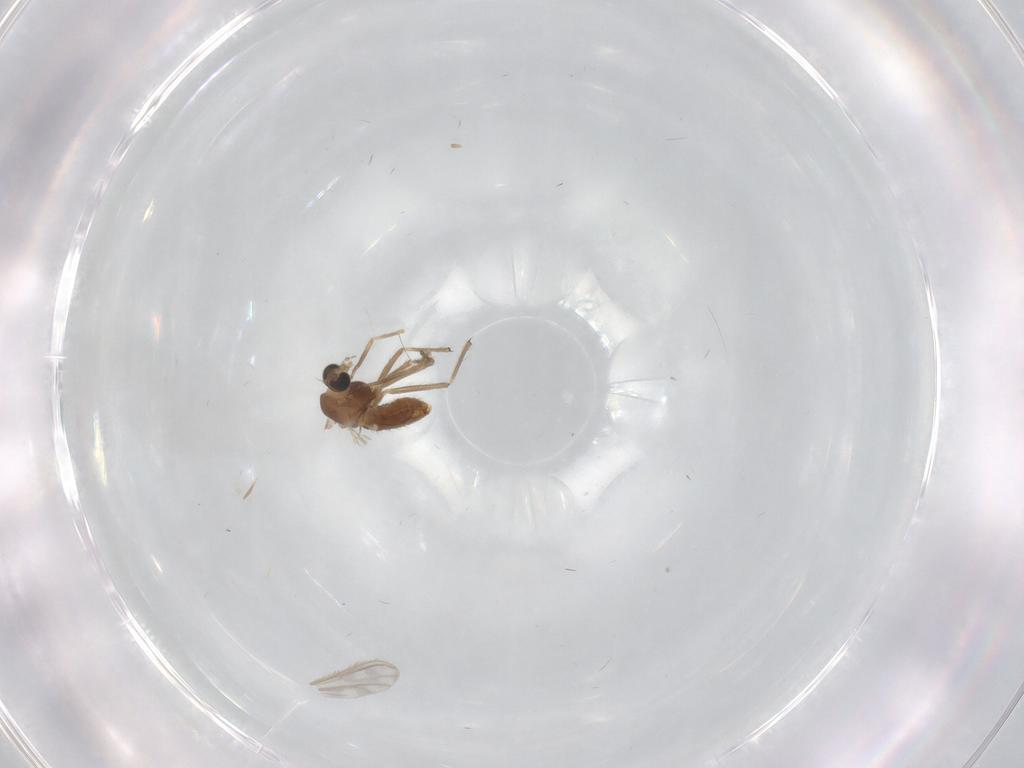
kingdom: Animalia
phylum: Arthropoda
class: Insecta
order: Diptera
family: Chironomidae
